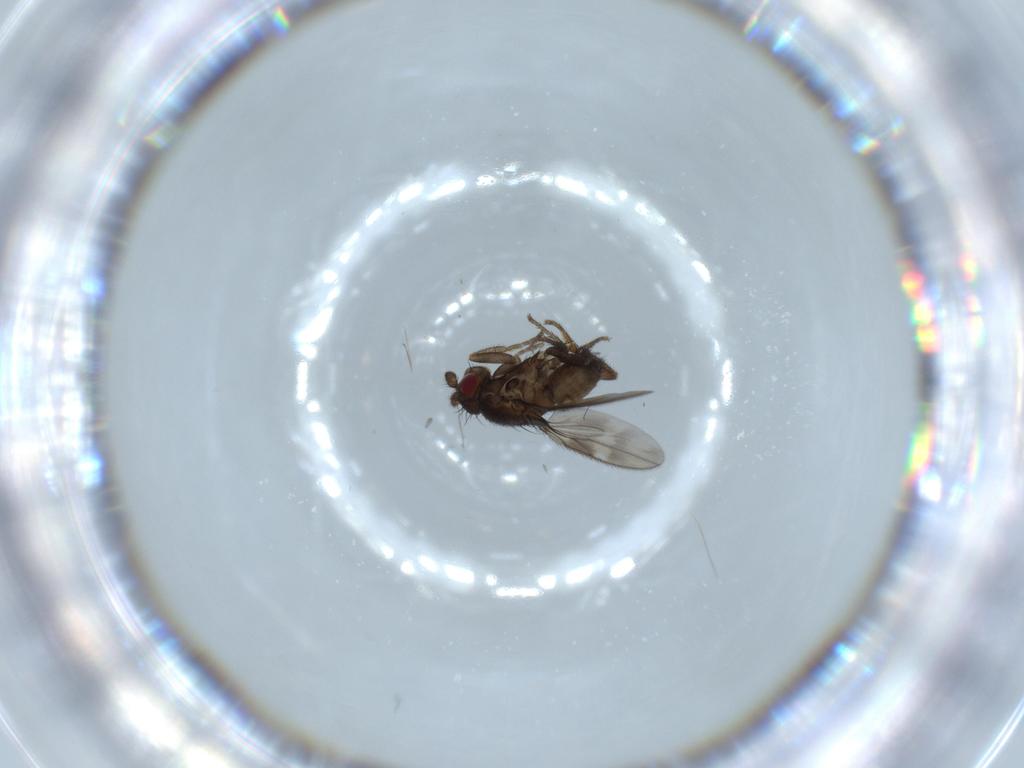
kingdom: Animalia
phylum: Arthropoda
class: Insecta
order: Diptera
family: Sphaeroceridae
